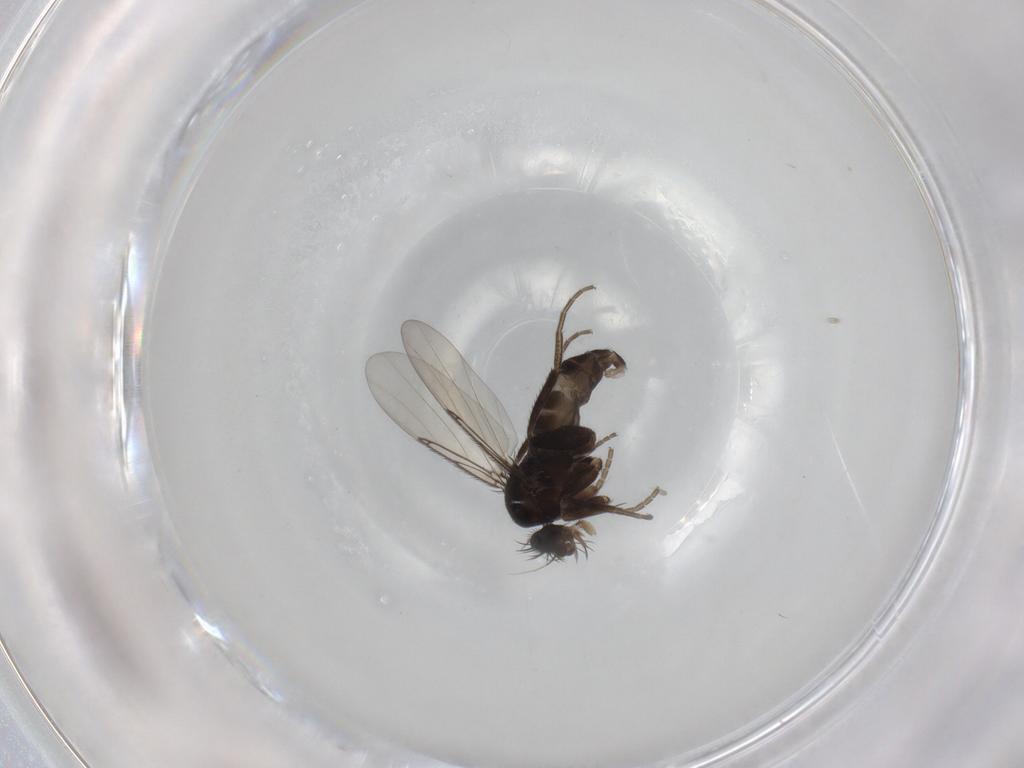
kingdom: Animalia
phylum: Arthropoda
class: Insecta
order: Diptera
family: Phoridae
